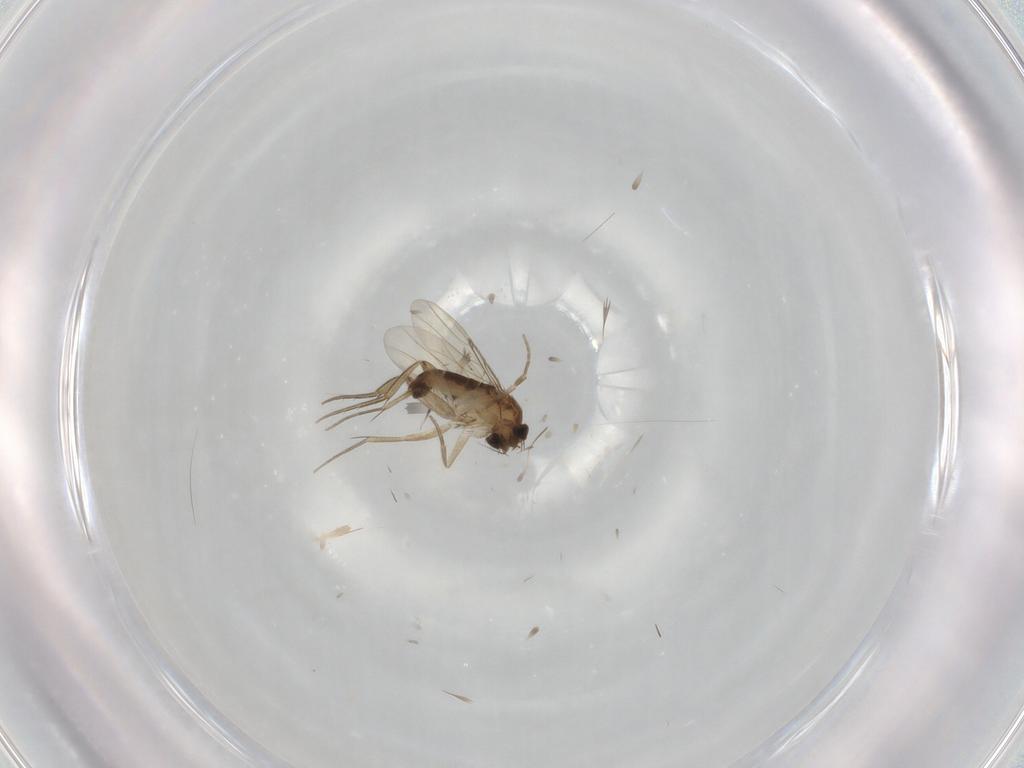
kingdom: Animalia
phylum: Arthropoda
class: Insecta
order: Diptera
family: Phoridae
